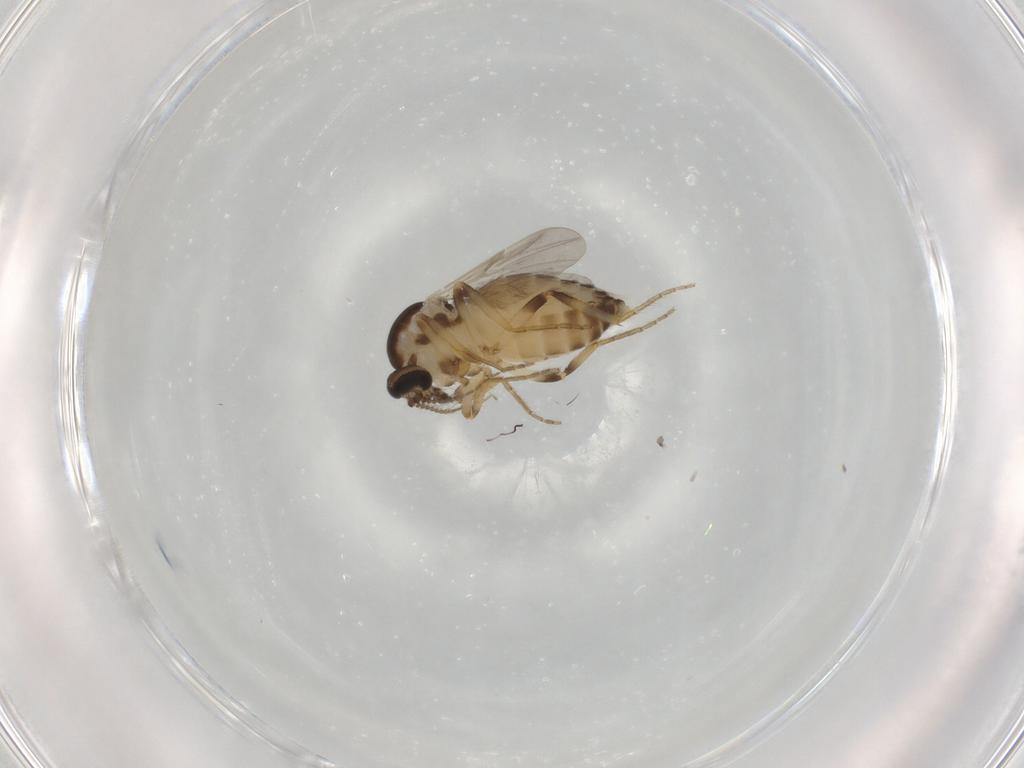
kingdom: Animalia
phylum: Arthropoda
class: Insecta
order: Diptera
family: Ceratopogonidae
